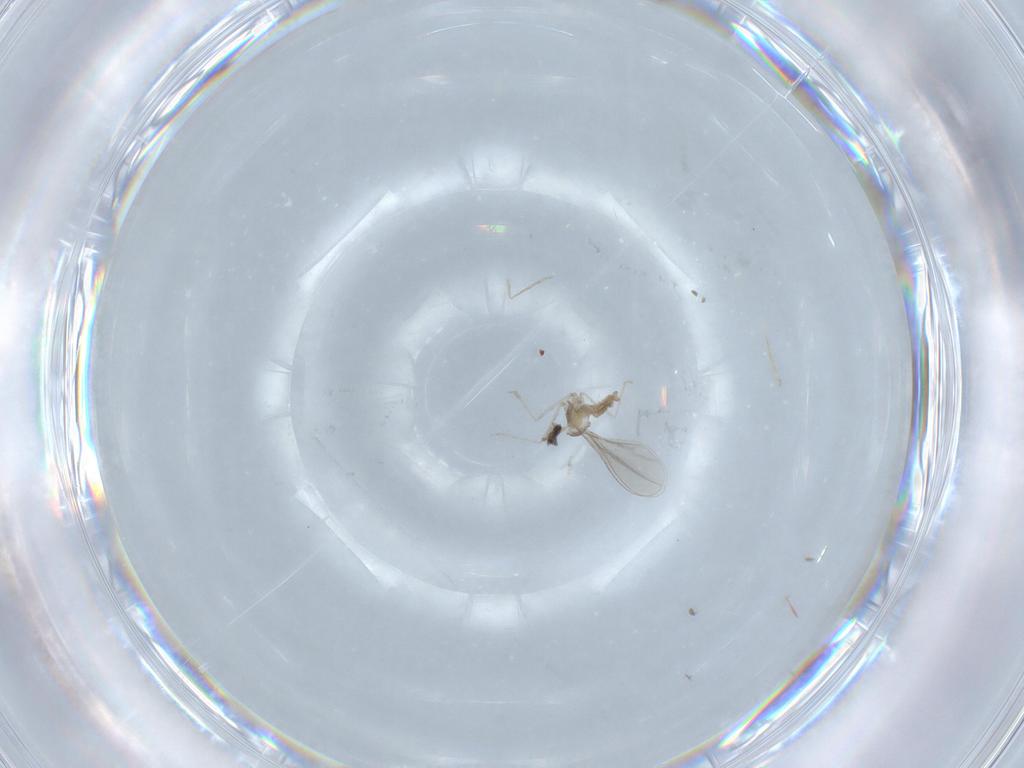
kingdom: Animalia
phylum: Arthropoda
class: Insecta
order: Diptera
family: Cecidomyiidae
